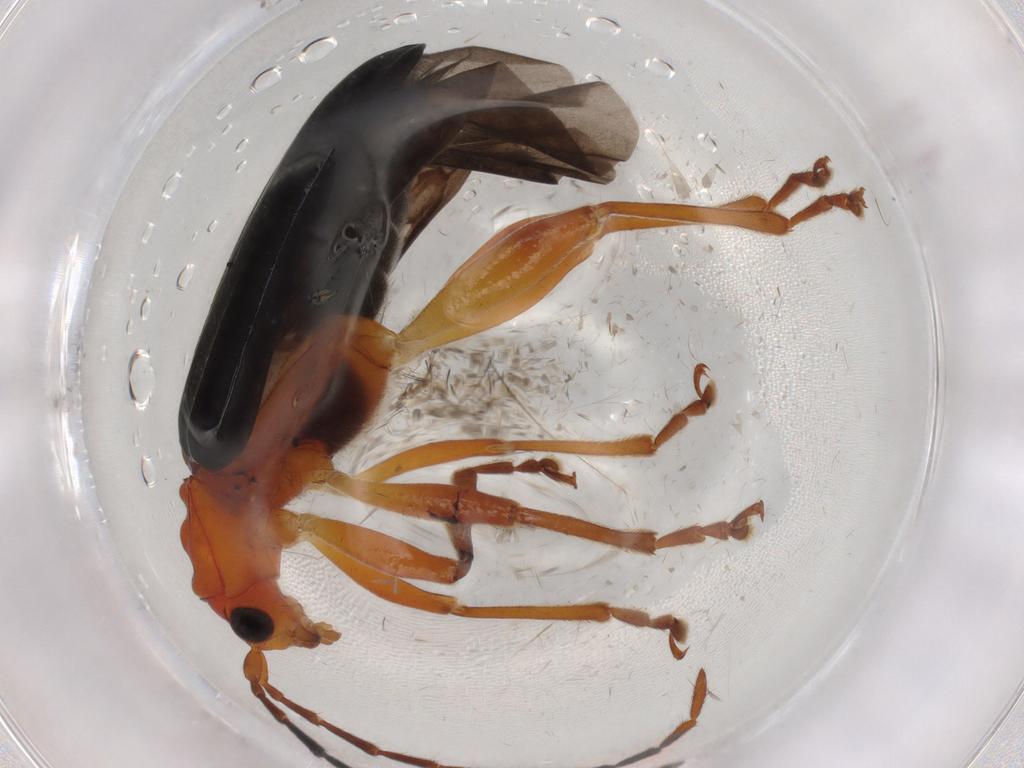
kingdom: Animalia
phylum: Arthropoda
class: Insecta
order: Coleoptera
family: Chrysomelidae
